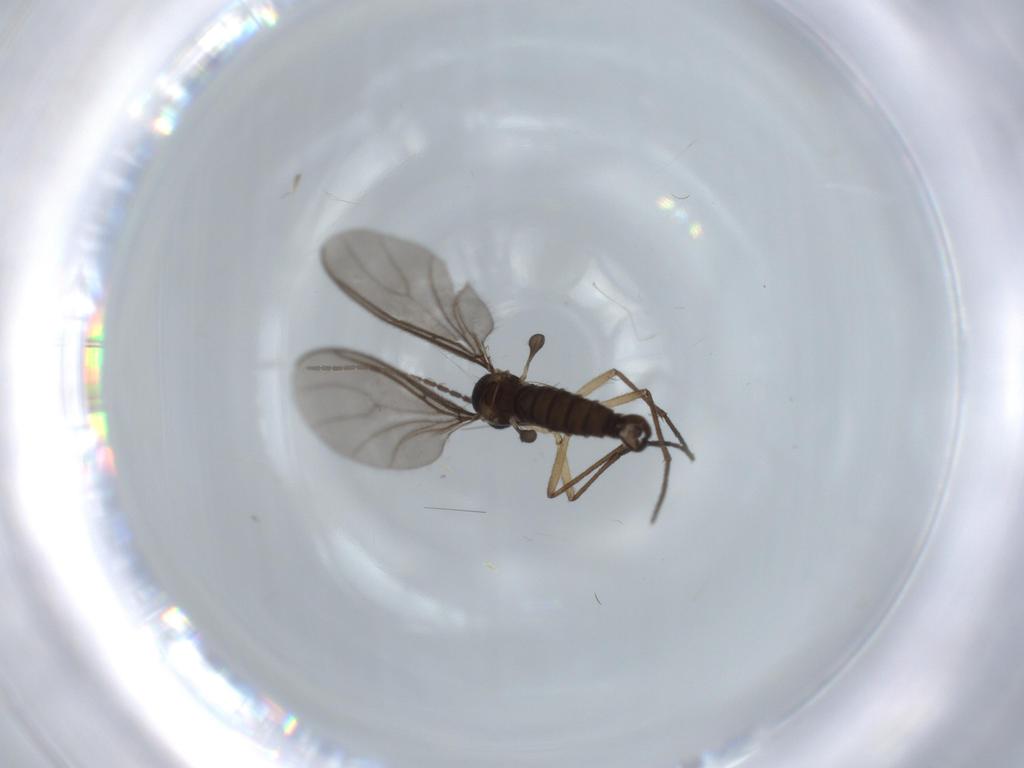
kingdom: Animalia
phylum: Arthropoda
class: Insecta
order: Diptera
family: Sciaridae
